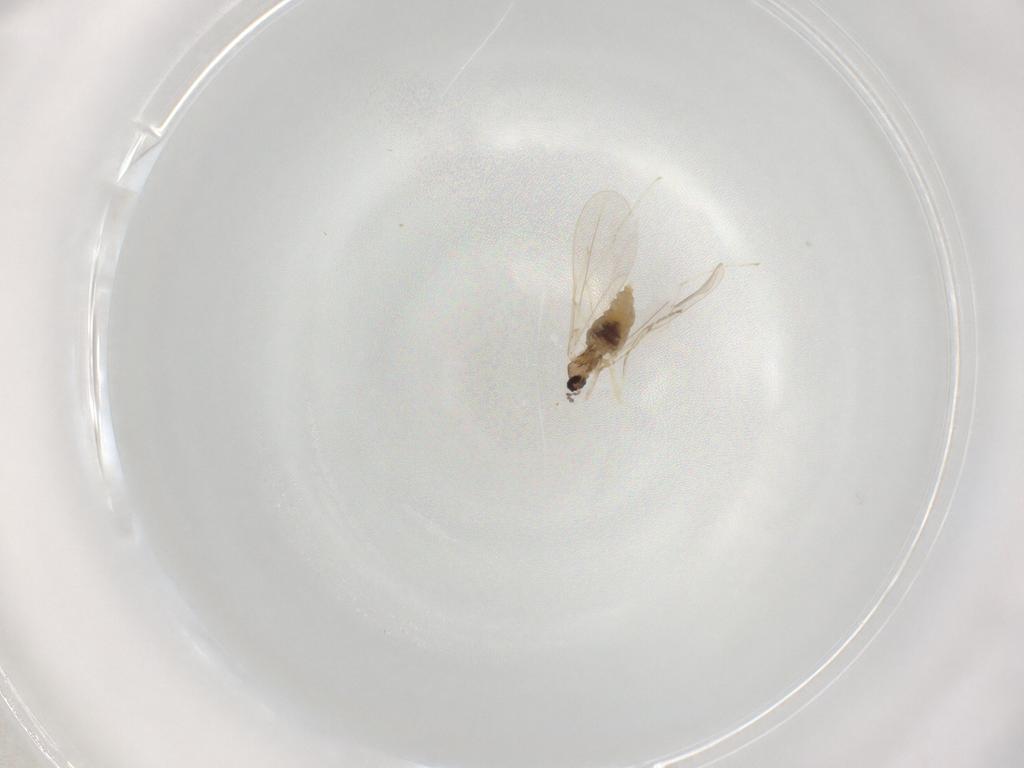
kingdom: Animalia
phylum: Arthropoda
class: Insecta
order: Diptera
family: Cecidomyiidae
